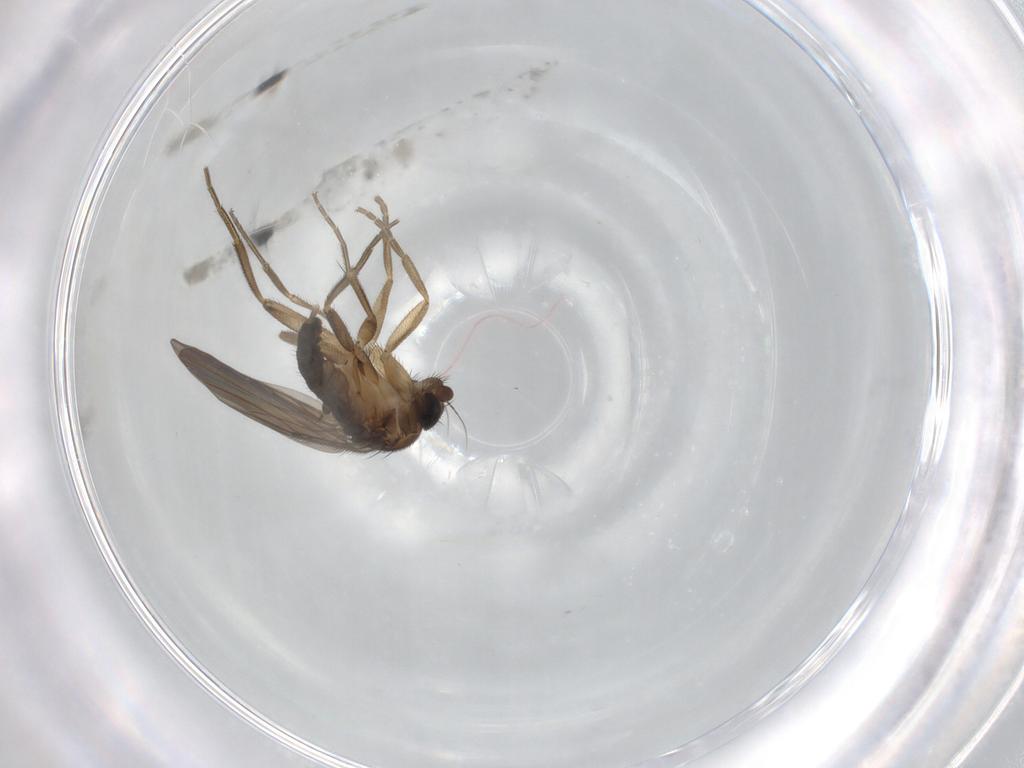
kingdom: Animalia
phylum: Arthropoda
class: Insecta
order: Diptera
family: Phoridae
